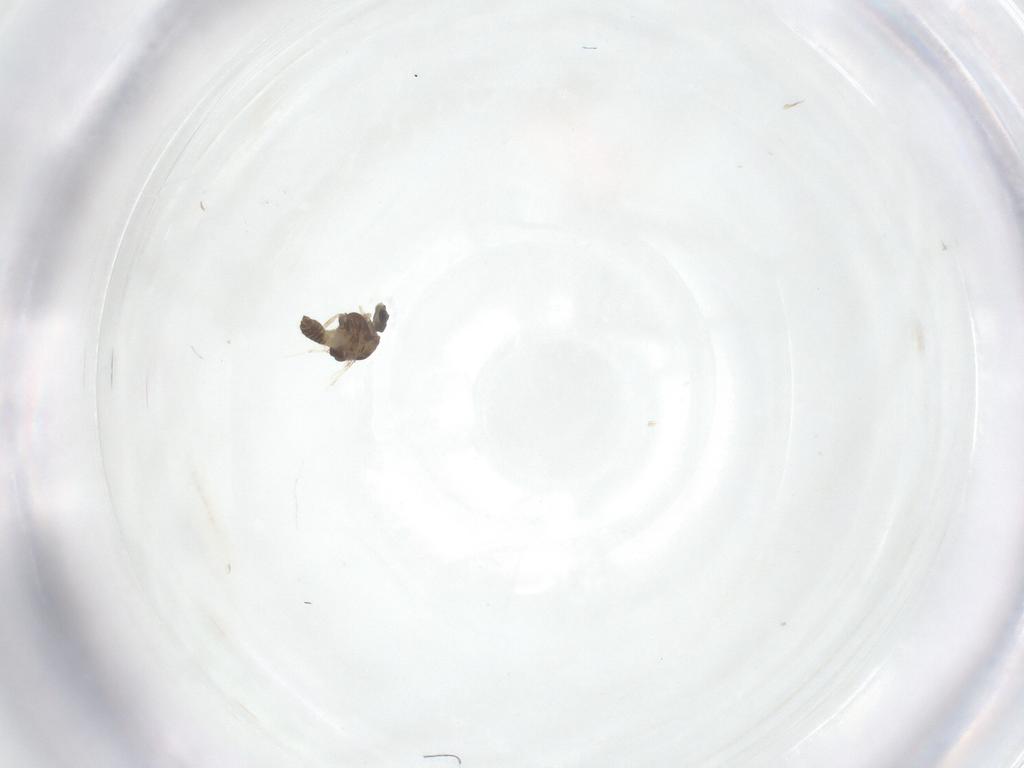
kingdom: Animalia
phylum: Arthropoda
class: Insecta
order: Diptera
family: Chironomidae
